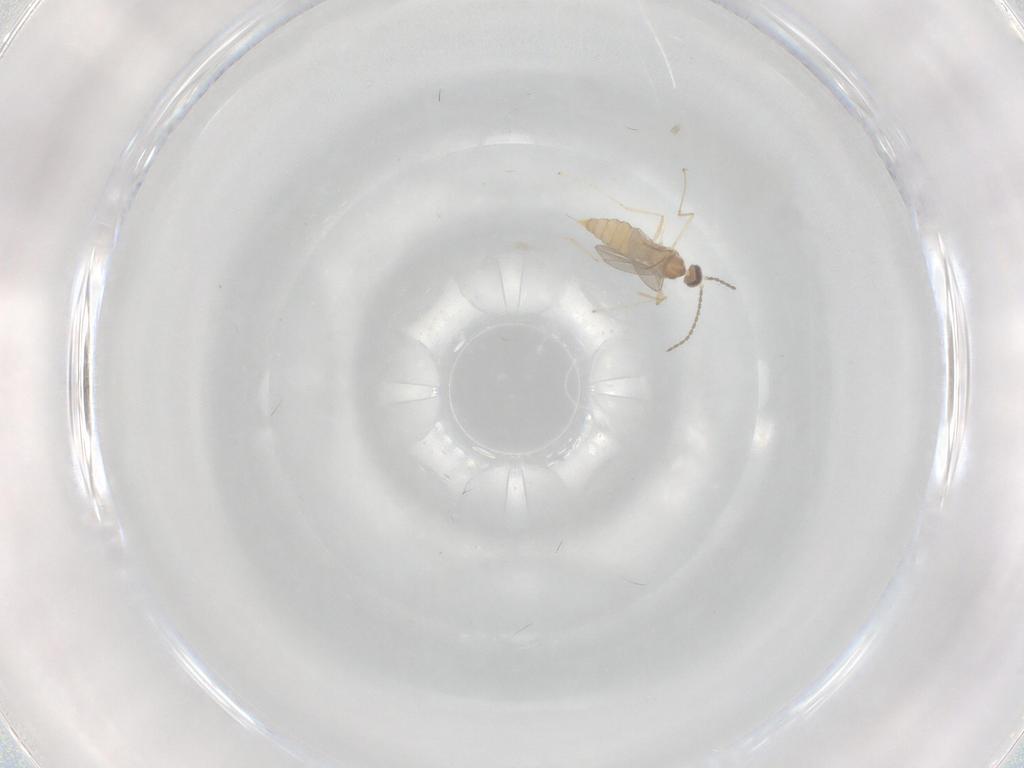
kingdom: Animalia
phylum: Arthropoda
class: Insecta
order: Diptera
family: Cecidomyiidae
